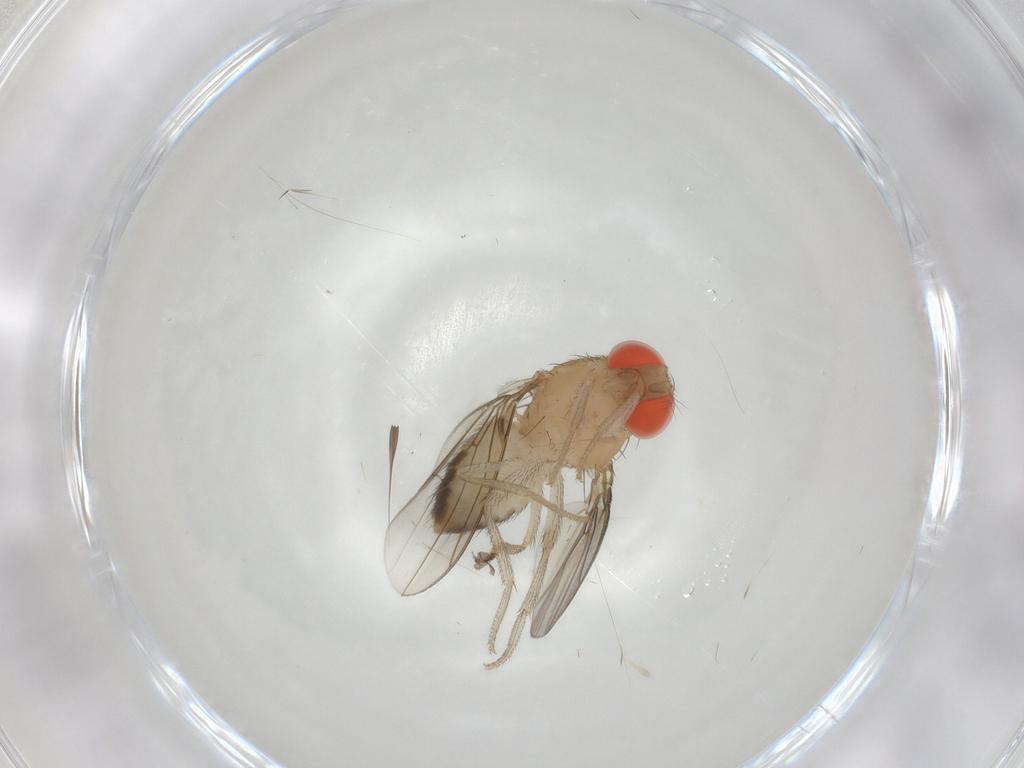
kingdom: Animalia
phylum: Arthropoda
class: Insecta
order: Diptera
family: Drosophilidae
